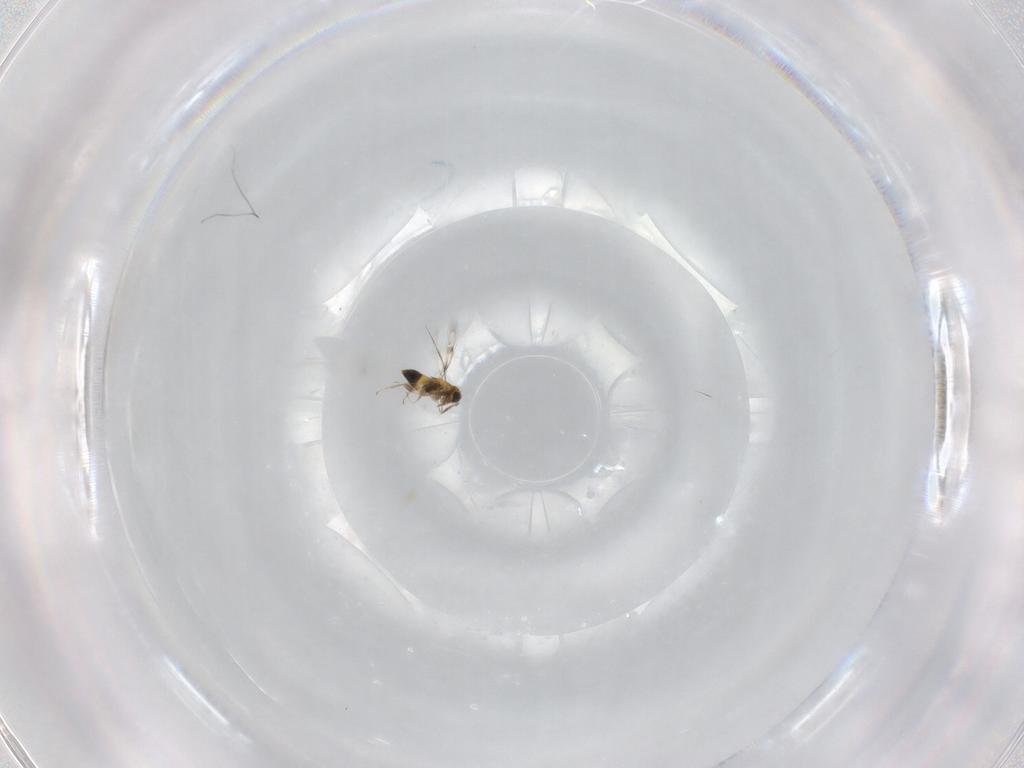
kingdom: Animalia
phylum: Arthropoda
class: Insecta
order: Hymenoptera
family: Trichogrammatidae
